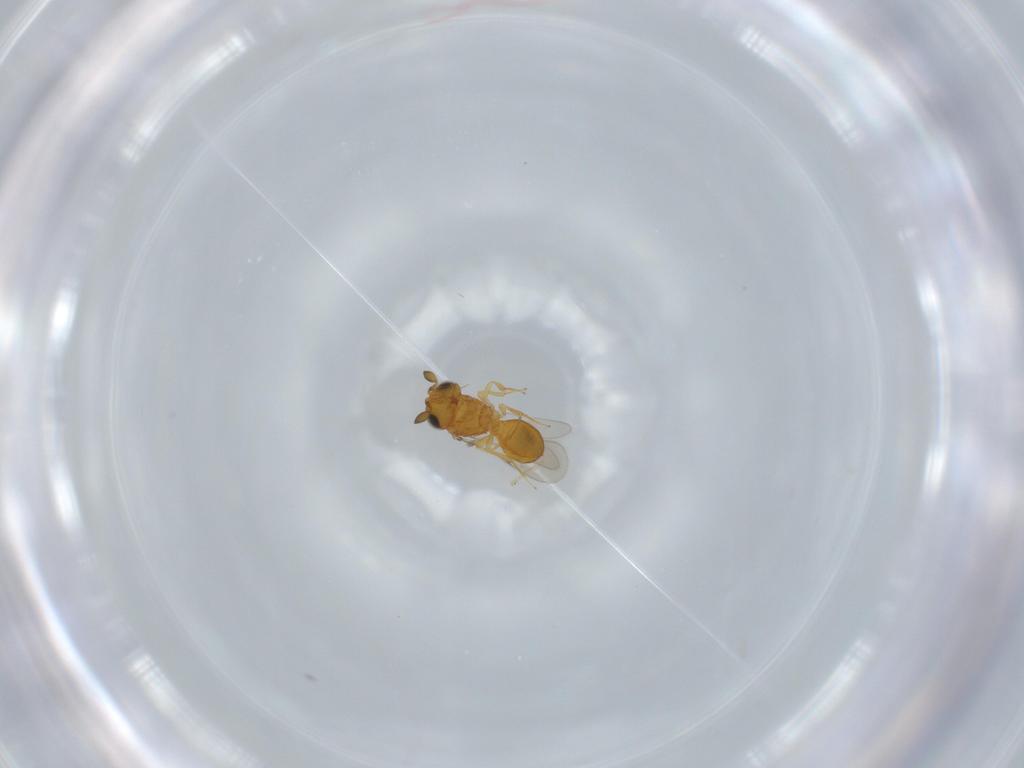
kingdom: Animalia
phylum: Arthropoda
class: Insecta
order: Hymenoptera
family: Scelionidae
